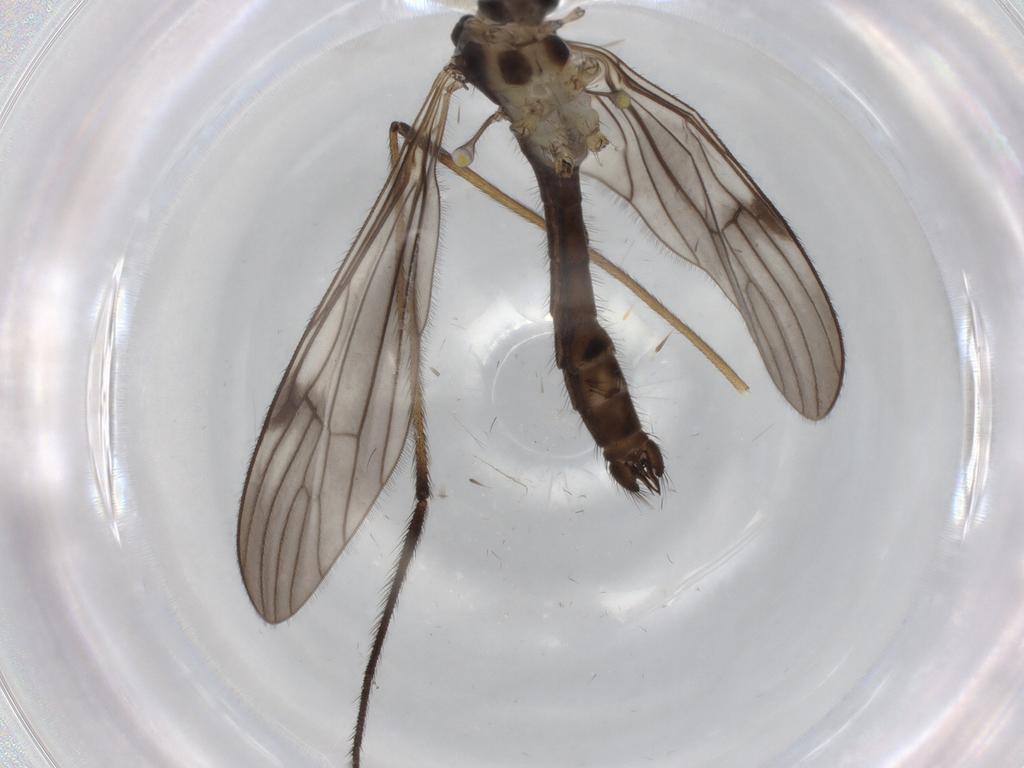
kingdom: Animalia
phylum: Arthropoda
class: Insecta
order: Diptera
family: Limoniidae
